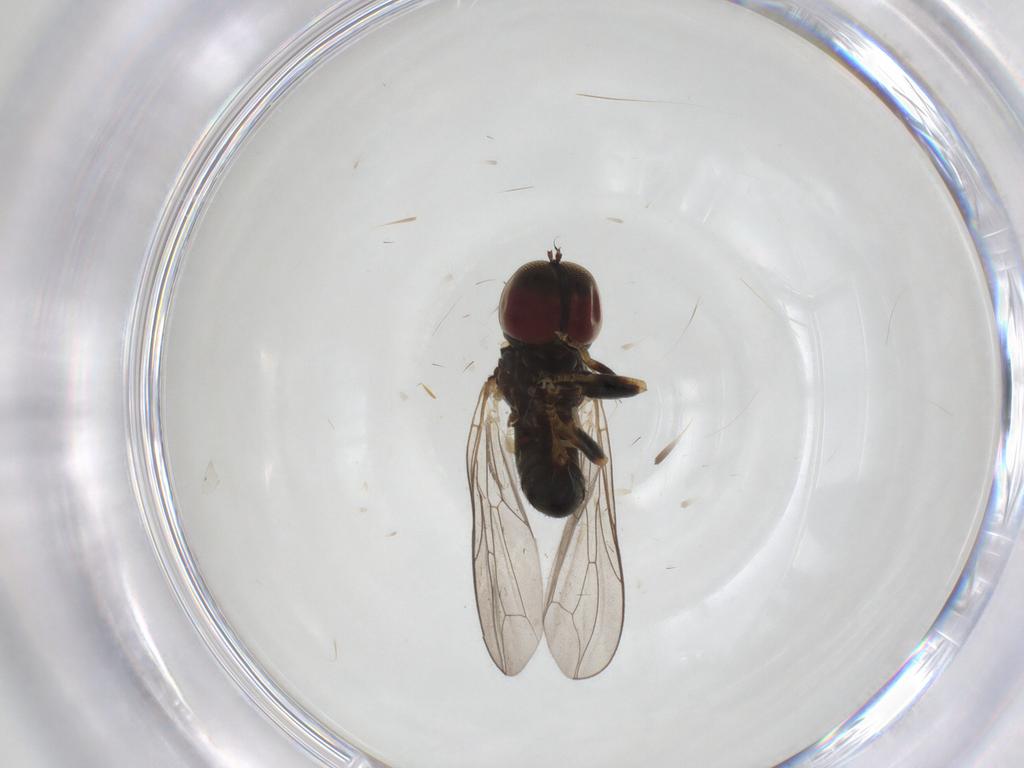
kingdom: Animalia
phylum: Arthropoda
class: Insecta
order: Diptera
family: Pipunculidae
